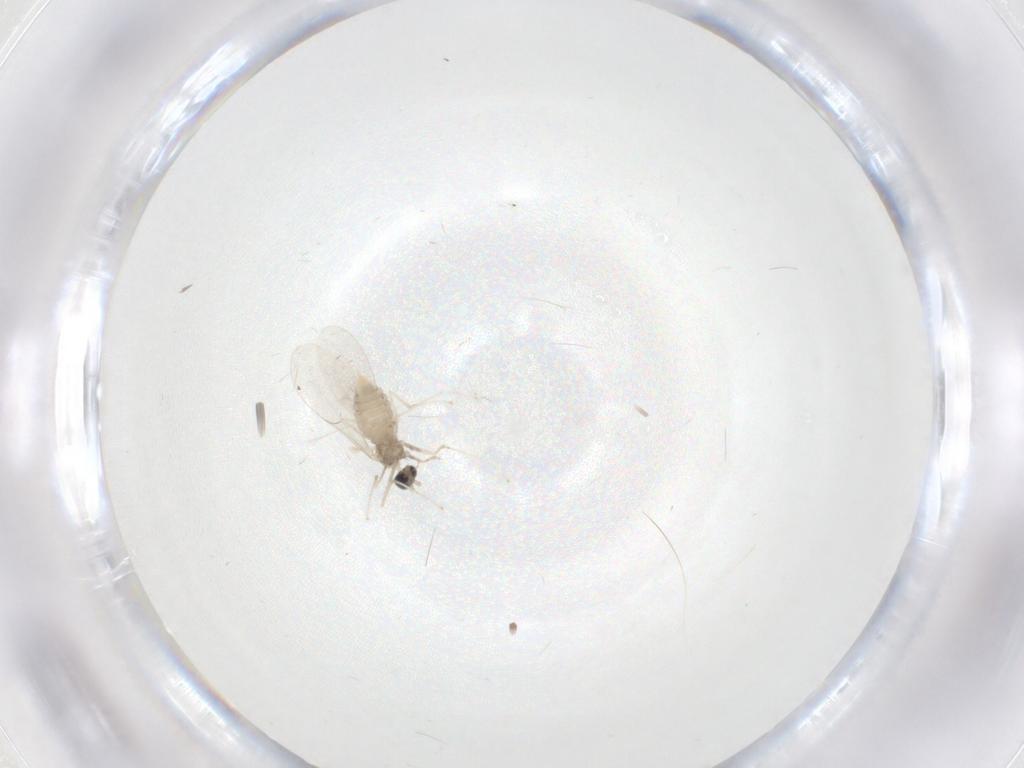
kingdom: Animalia
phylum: Arthropoda
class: Insecta
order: Diptera
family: Cecidomyiidae
